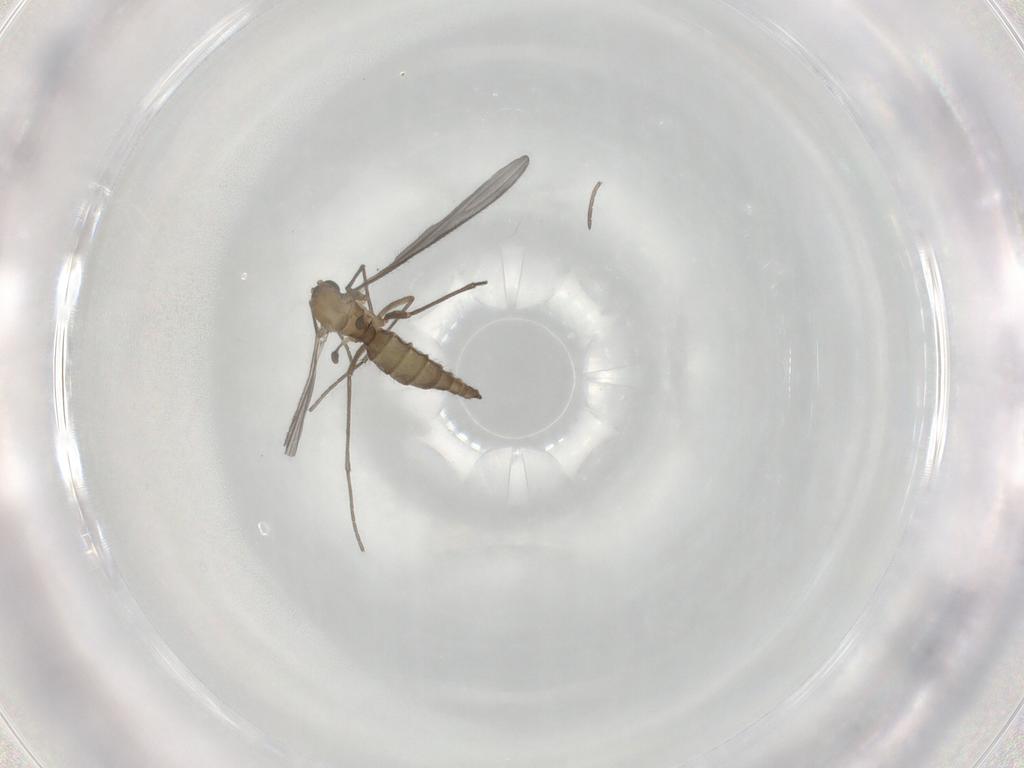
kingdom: Animalia
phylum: Arthropoda
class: Insecta
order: Diptera
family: Sciaridae
